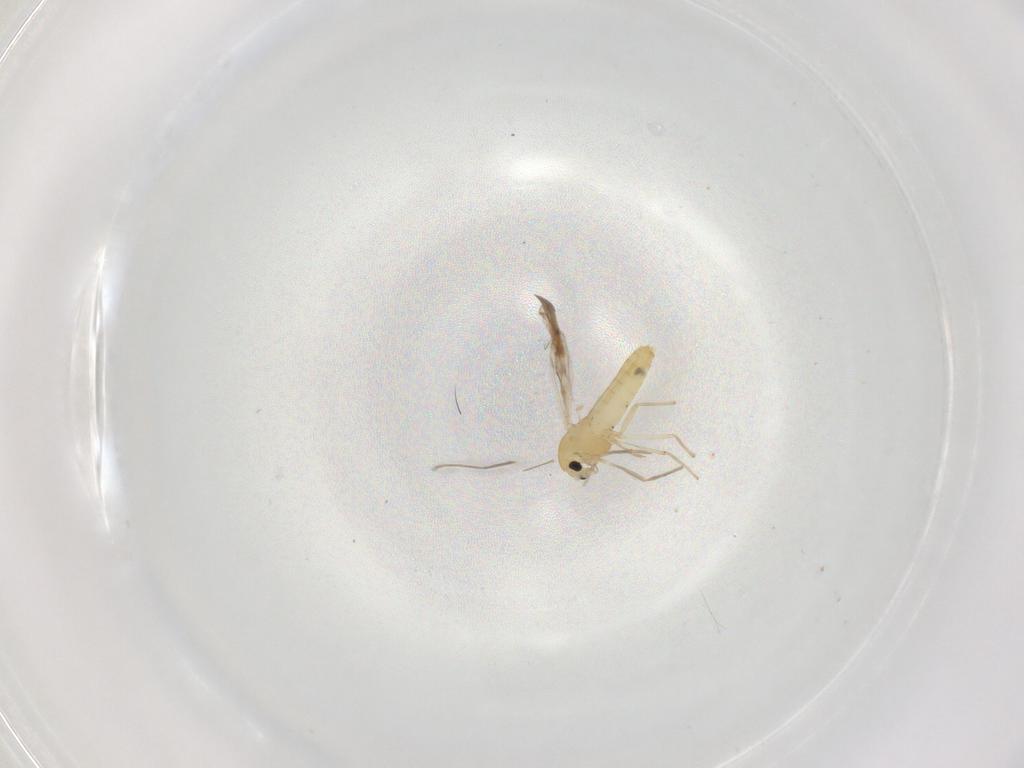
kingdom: Animalia
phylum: Arthropoda
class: Insecta
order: Diptera
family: Chironomidae
